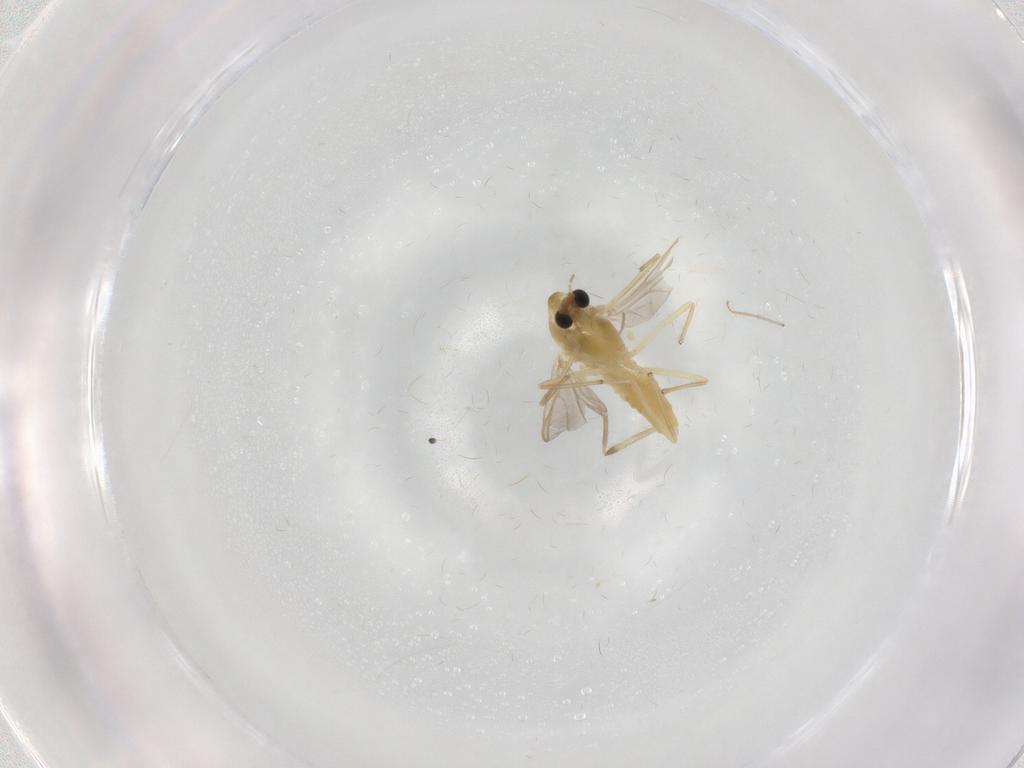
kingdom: Animalia
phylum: Arthropoda
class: Insecta
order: Diptera
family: Chironomidae
